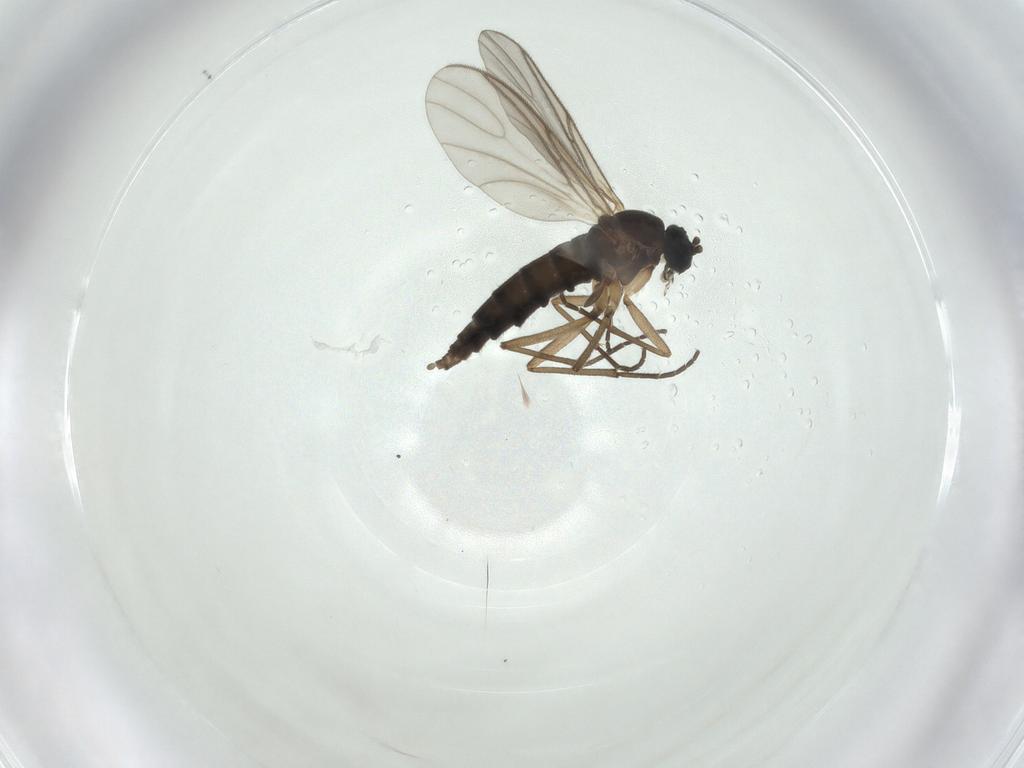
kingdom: Animalia
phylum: Arthropoda
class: Insecta
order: Diptera
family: Sciaridae
